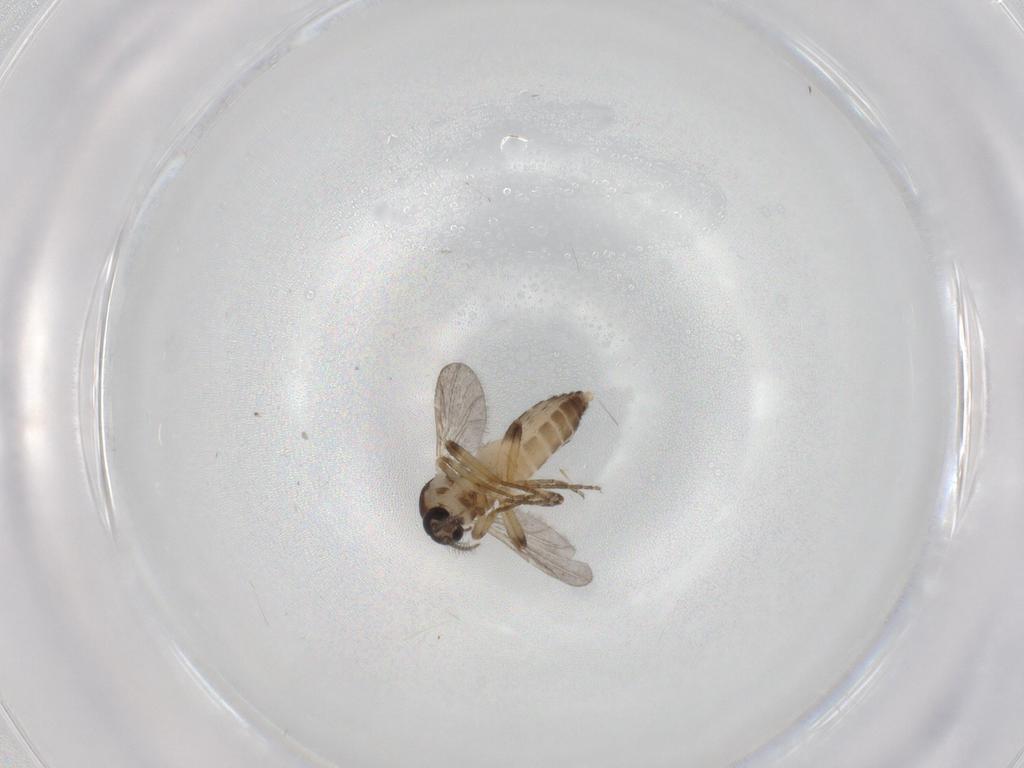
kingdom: Animalia
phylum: Arthropoda
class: Insecta
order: Diptera
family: Ceratopogonidae
